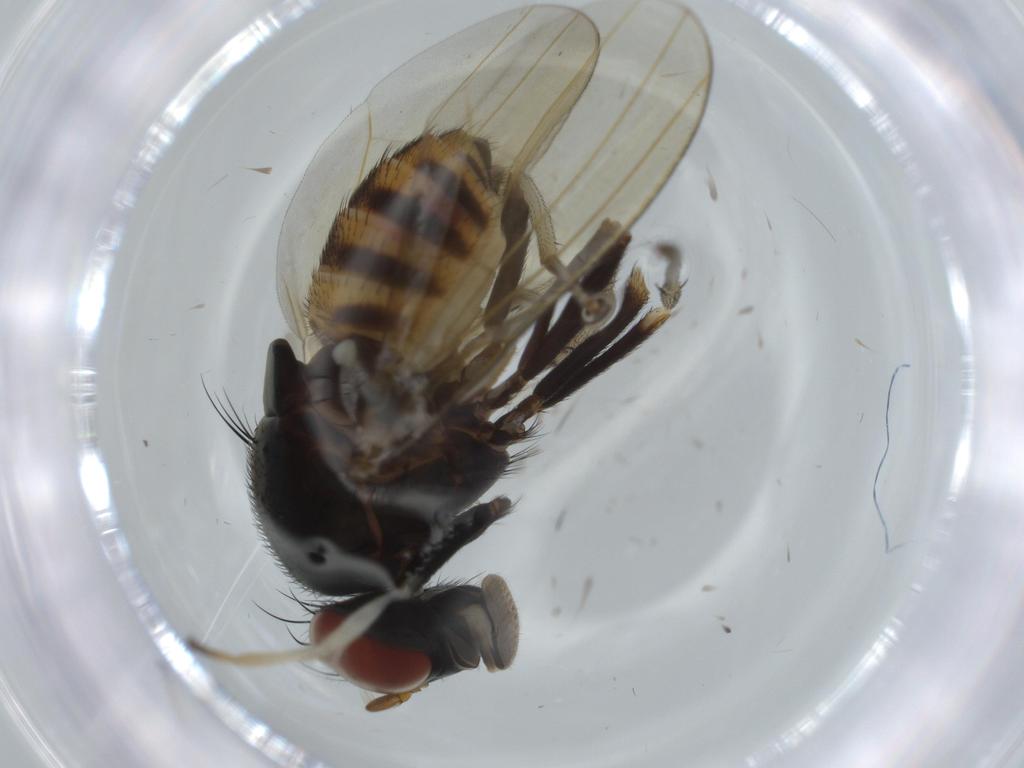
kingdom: Animalia
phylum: Arthropoda
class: Insecta
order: Diptera
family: Lauxaniidae
